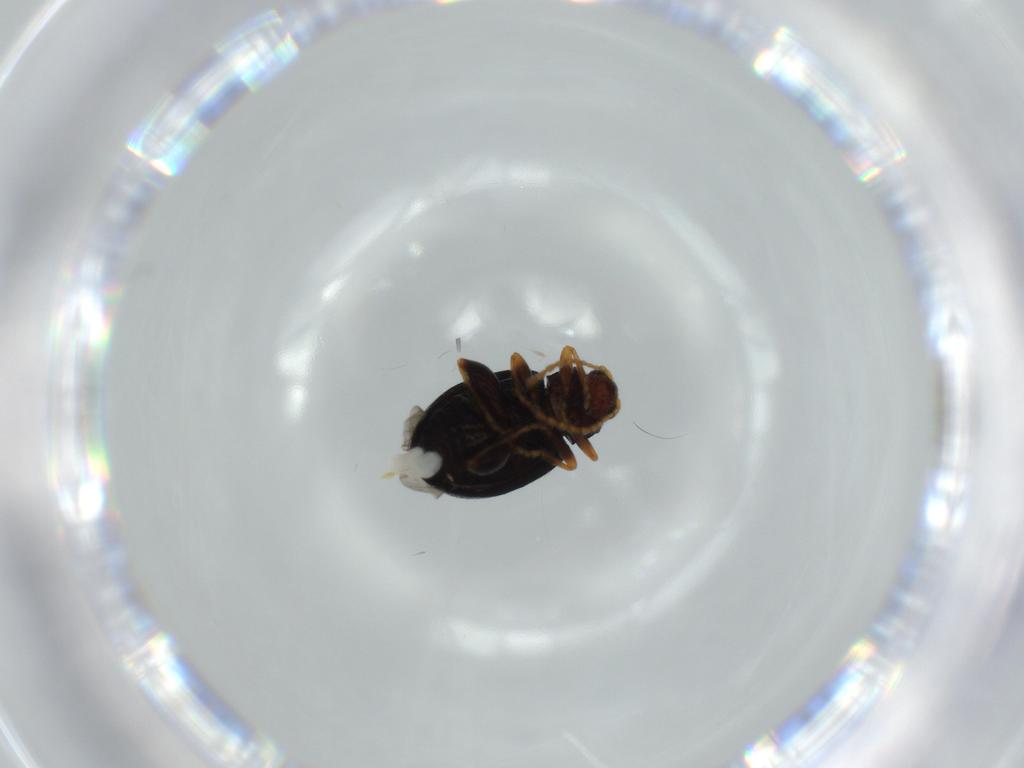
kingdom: Animalia
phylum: Arthropoda
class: Insecta
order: Coleoptera
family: Chrysomelidae
